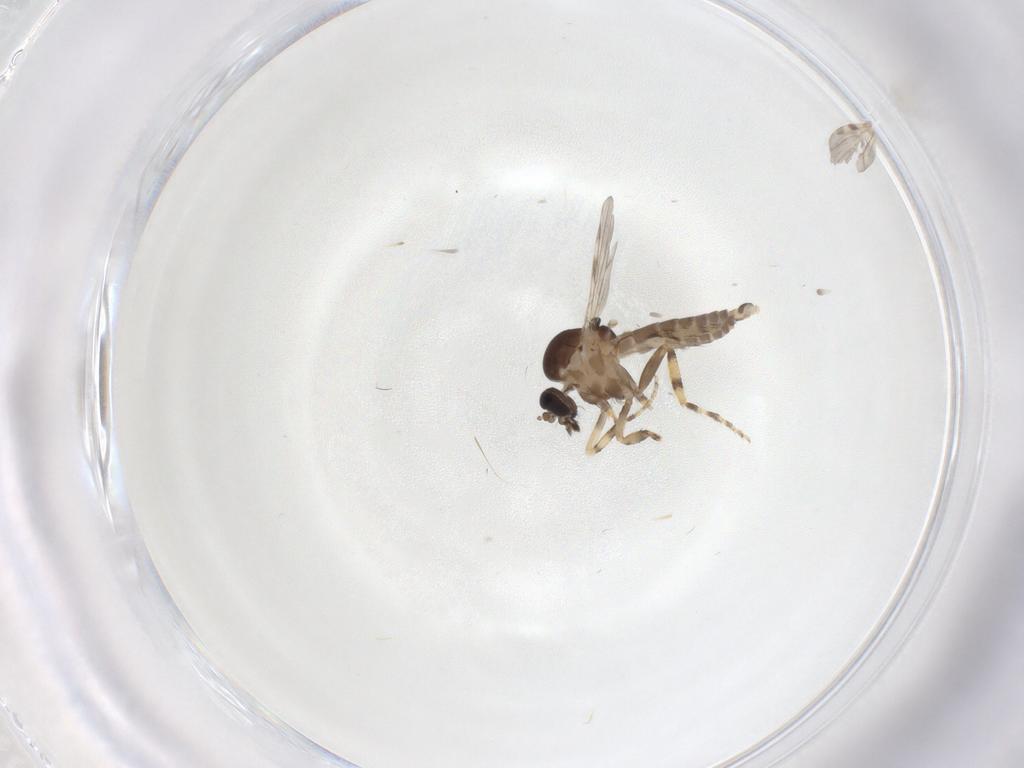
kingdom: Animalia
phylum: Arthropoda
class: Insecta
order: Diptera
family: Ceratopogonidae
